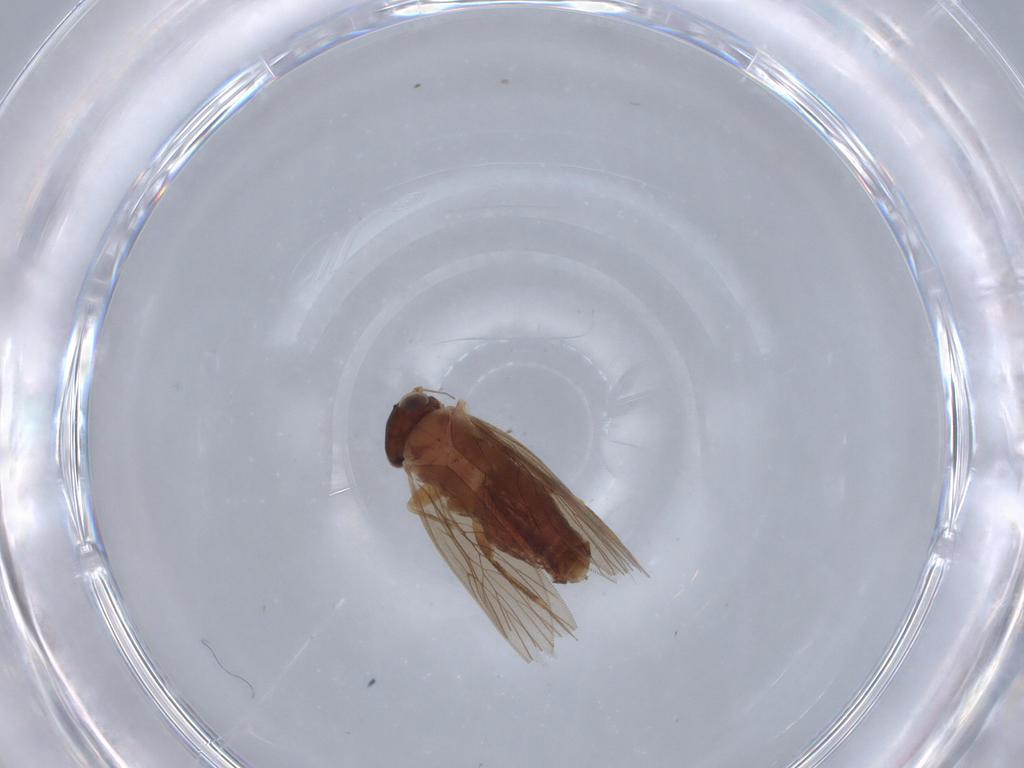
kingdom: Animalia
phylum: Arthropoda
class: Insecta
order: Psocodea
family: Lepidopsocidae
